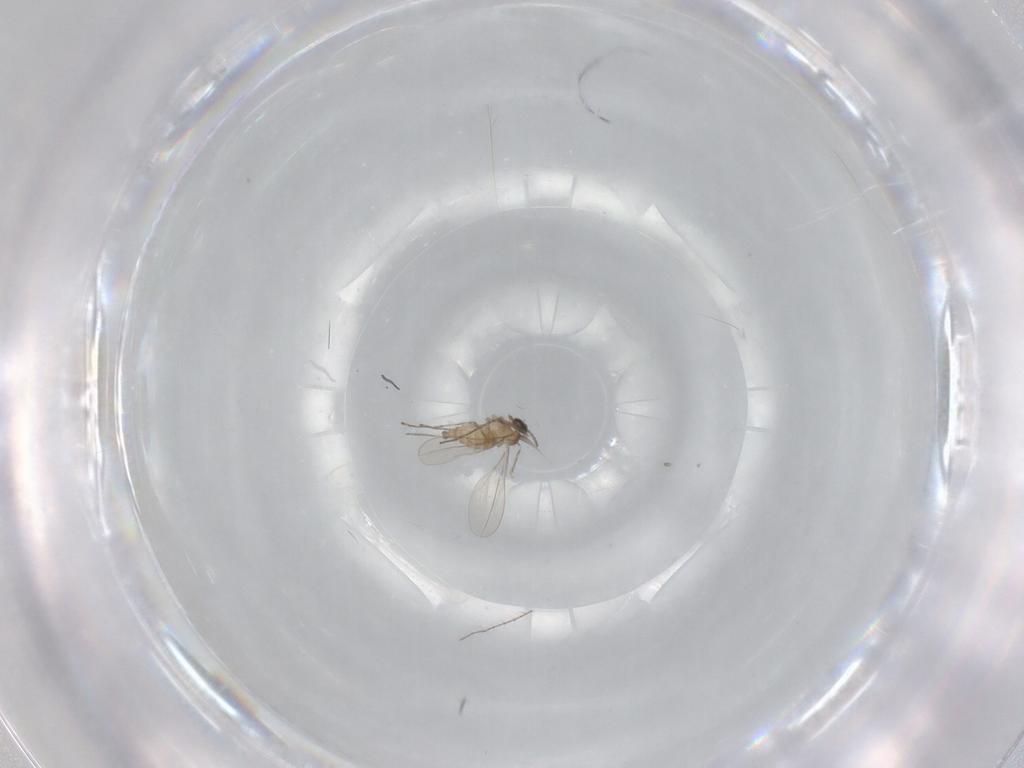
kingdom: Animalia
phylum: Arthropoda
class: Insecta
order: Diptera
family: Cecidomyiidae
